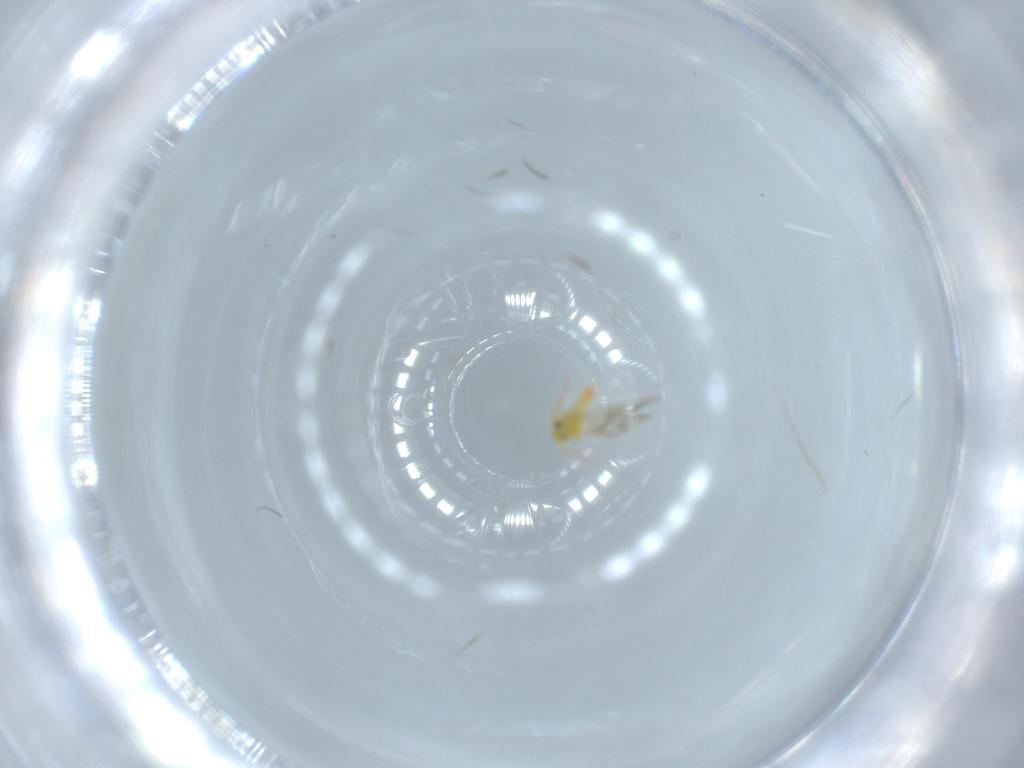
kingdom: Animalia
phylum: Arthropoda
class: Insecta
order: Hemiptera
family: Aleyrodidae
